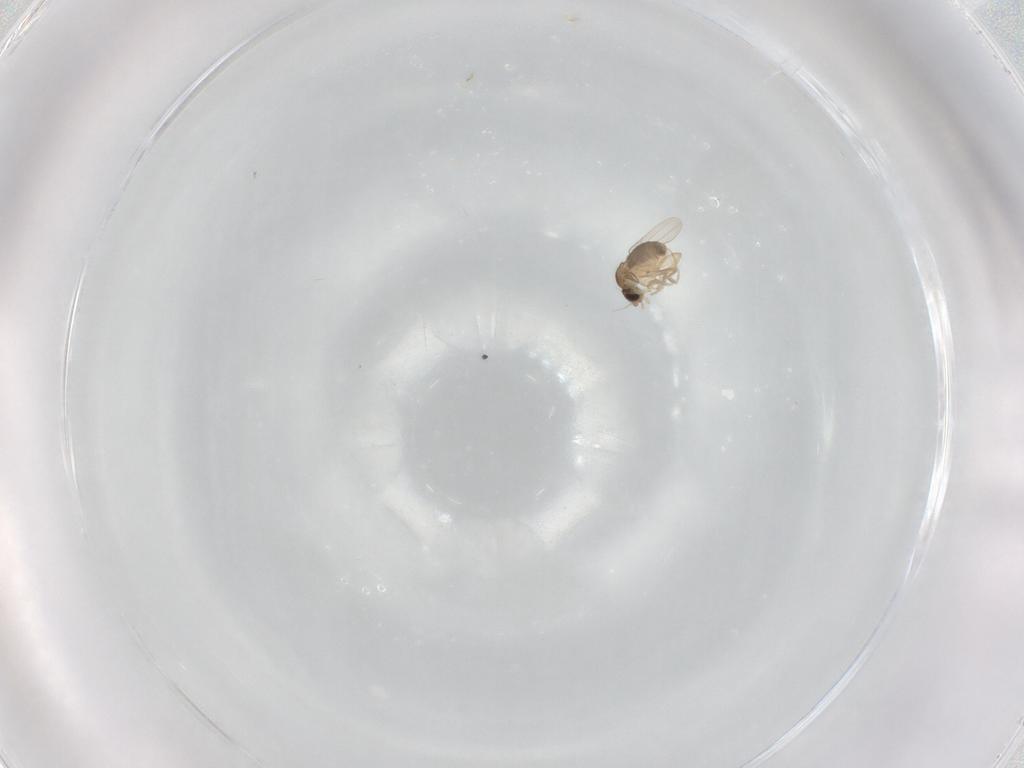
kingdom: Animalia
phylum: Arthropoda
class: Insecta
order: Diptera
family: Phoridae
